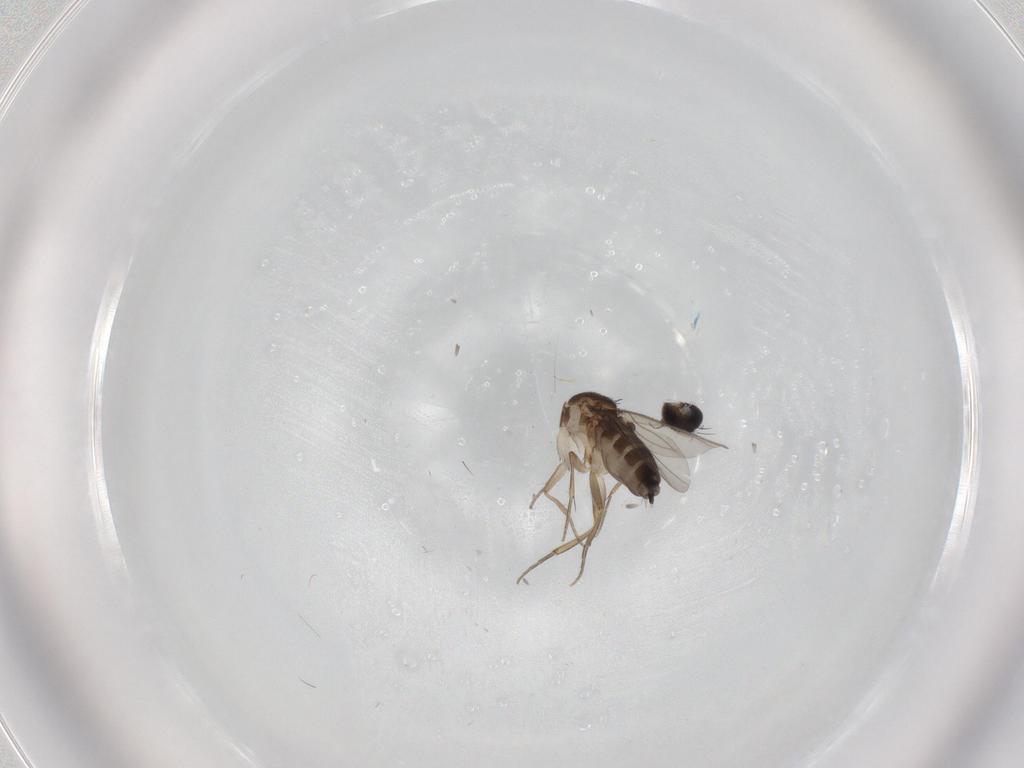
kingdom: Animalia
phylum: Arthropoda
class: Insecta
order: Diptera
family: Phoridae
